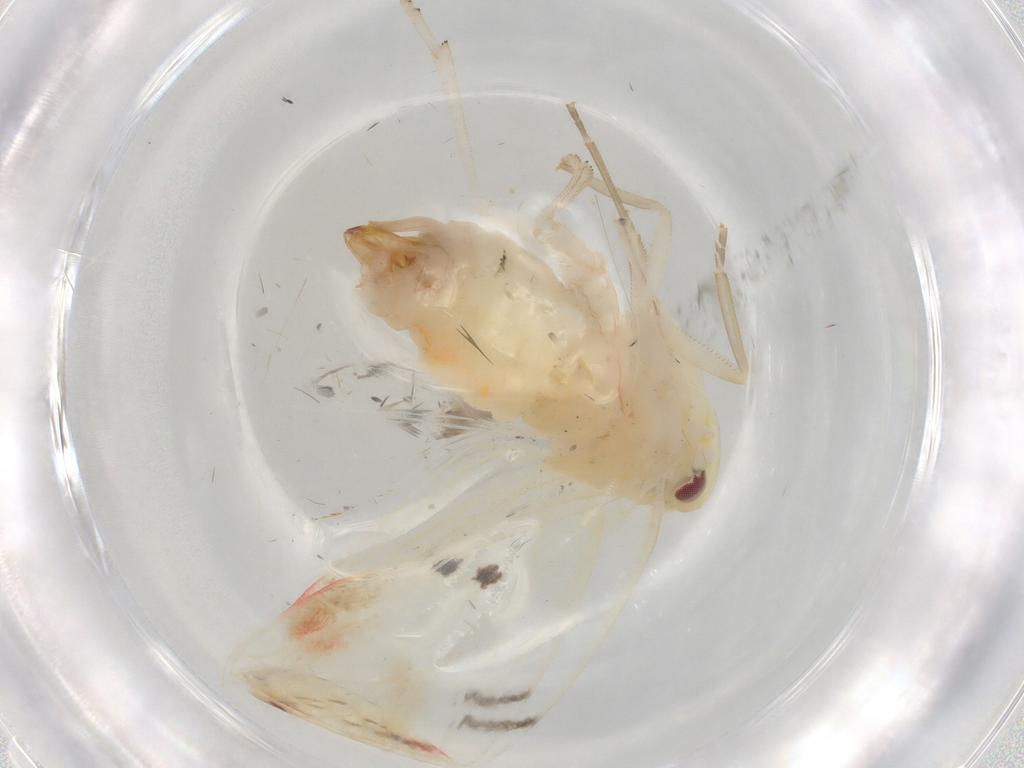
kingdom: Animalia
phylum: Arthropoda
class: Insecta
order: Hemiptera
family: Derbidae
